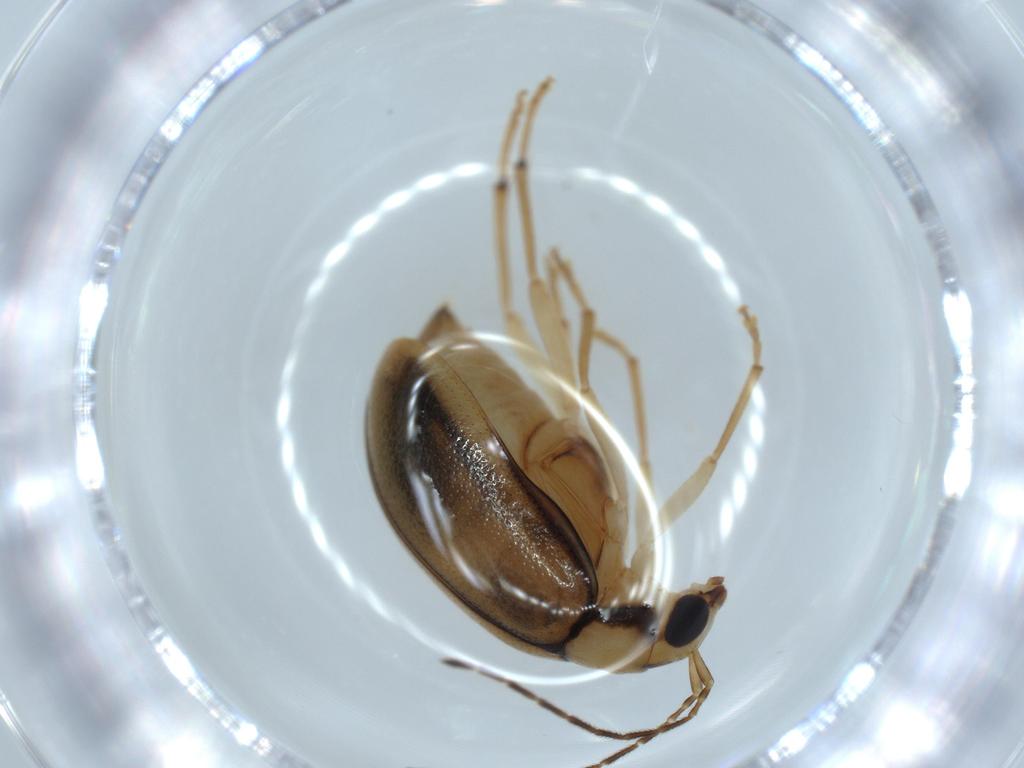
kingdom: Animalia
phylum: Arthropoda
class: Insecta
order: Coleoptera
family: Chrysomelidae
